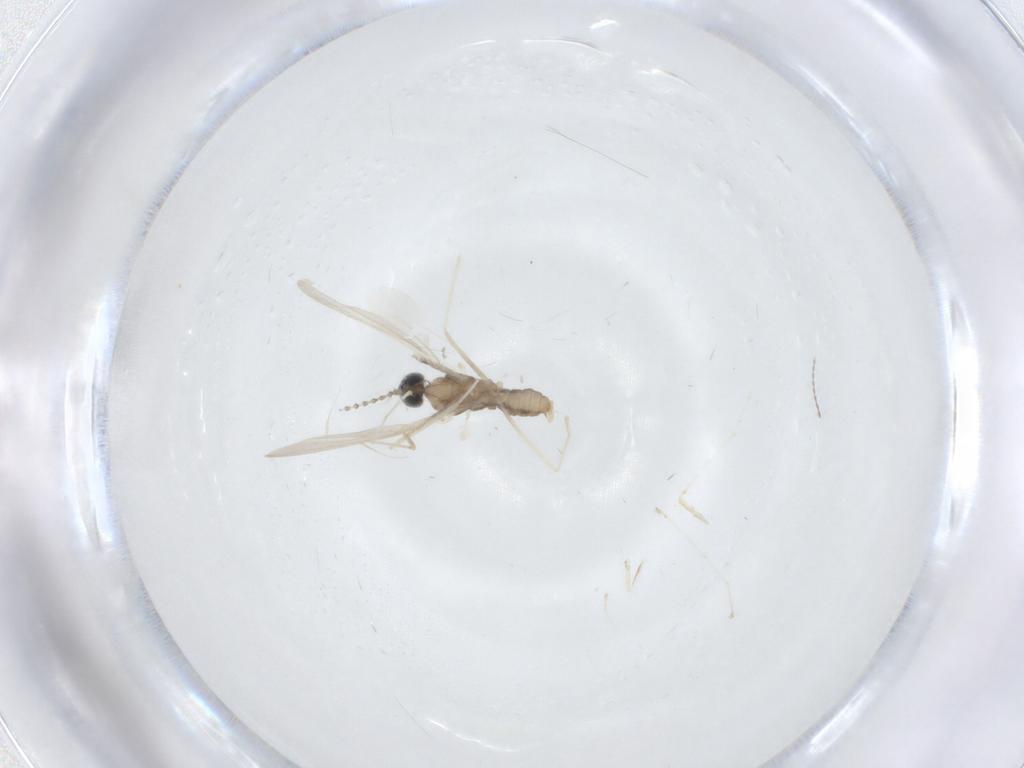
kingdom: Animalia
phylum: Arthropoda
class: Insecta
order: Diptera
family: Cecidomyiidae
